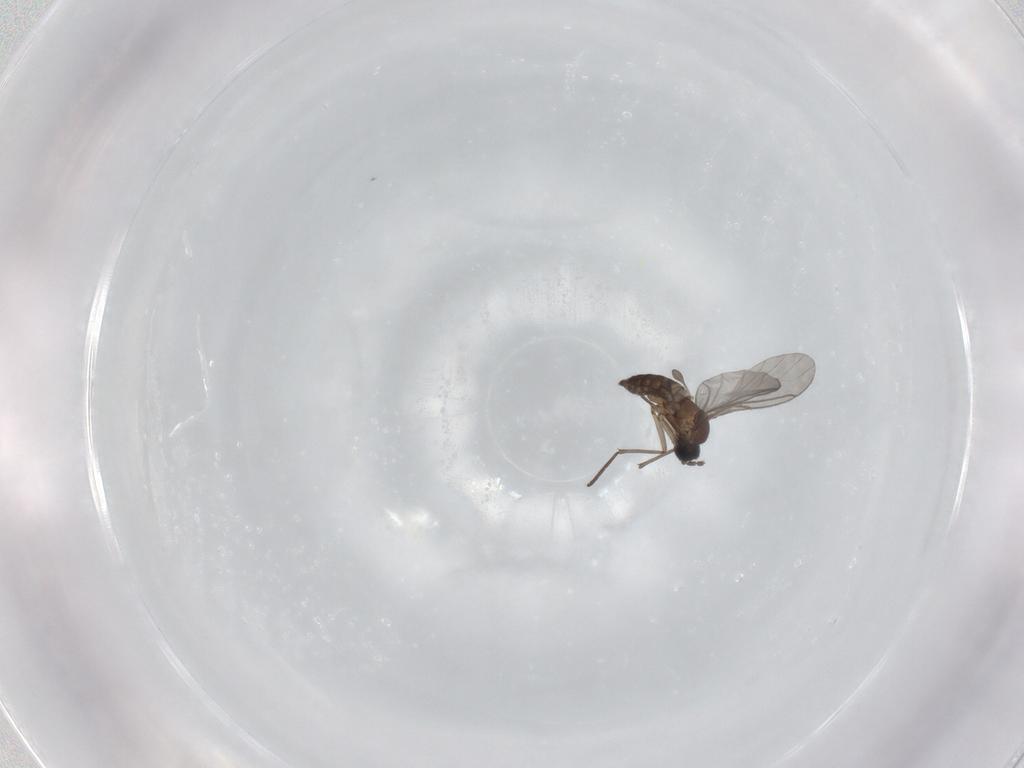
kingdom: Animalia
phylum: Arthropoda
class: Insecta
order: Diptera
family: Sciaridae
